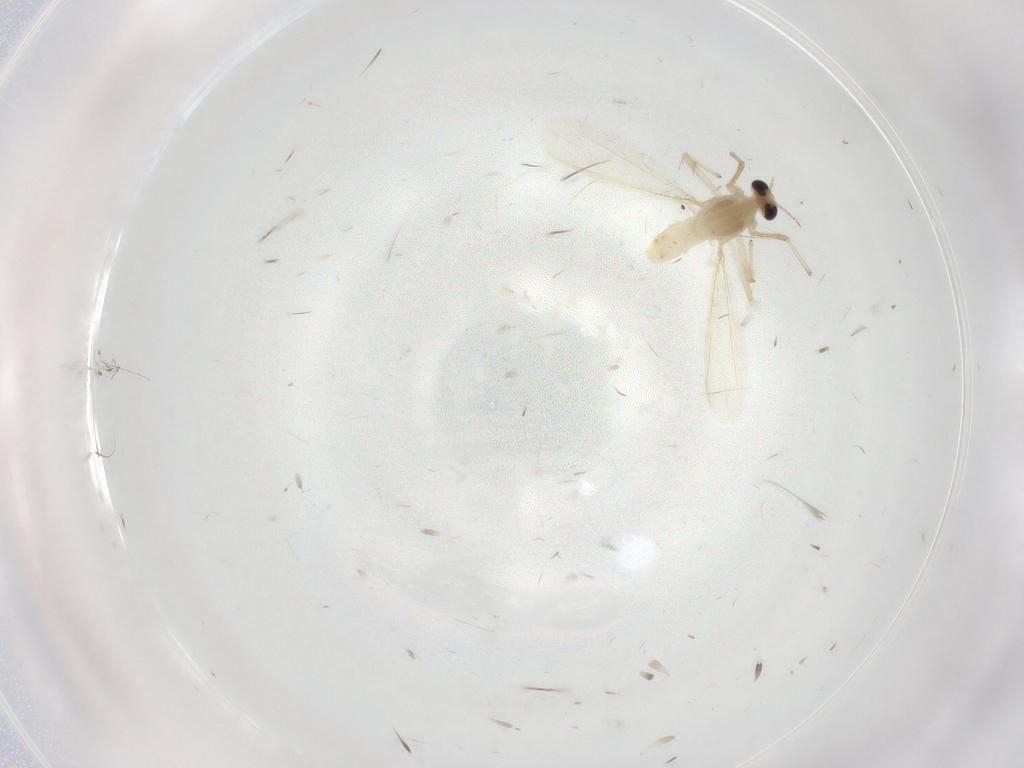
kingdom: Animalia
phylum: Arthropoda
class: Insecta
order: Diptera
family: Chironomidae
